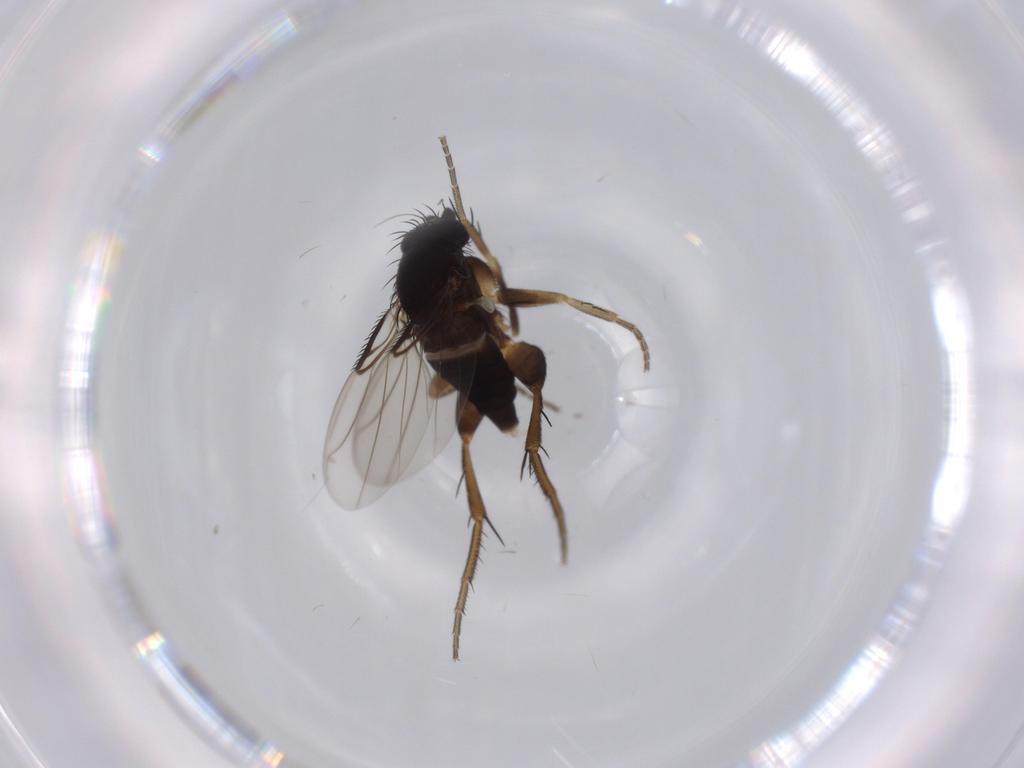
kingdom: Animalia
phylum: Arthropoda
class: Insecta
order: Diptera
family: Phoridae
